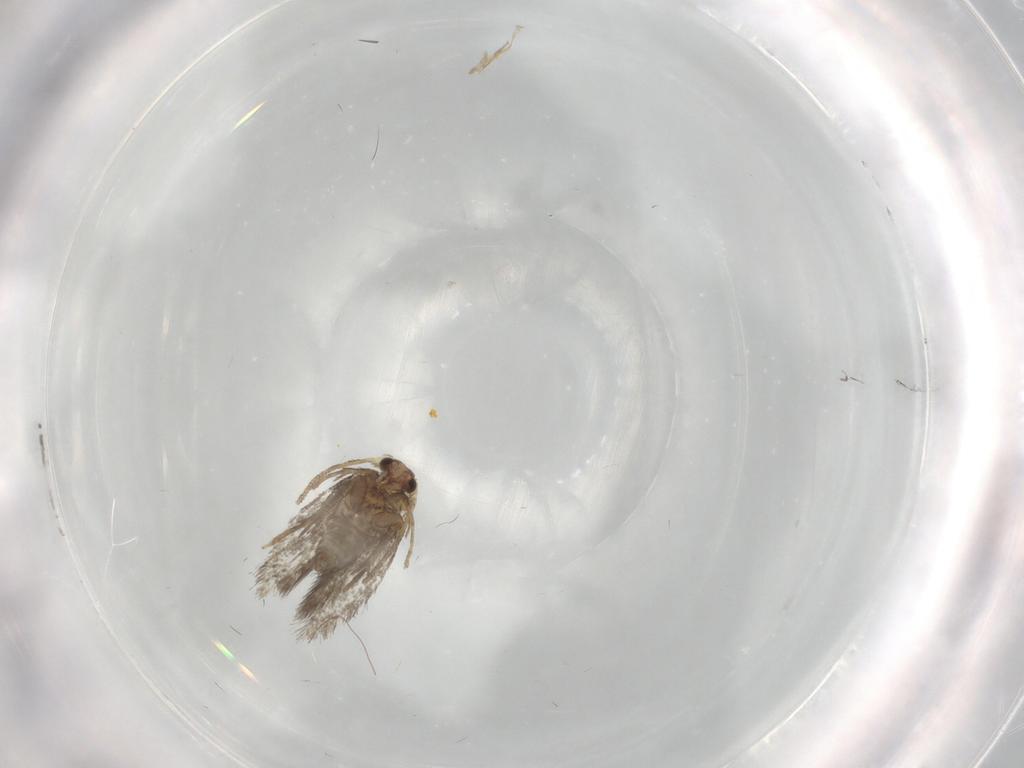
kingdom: Animalia
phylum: Arthropoda
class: Insecta
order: Lepidoptera
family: Nepticulidae
